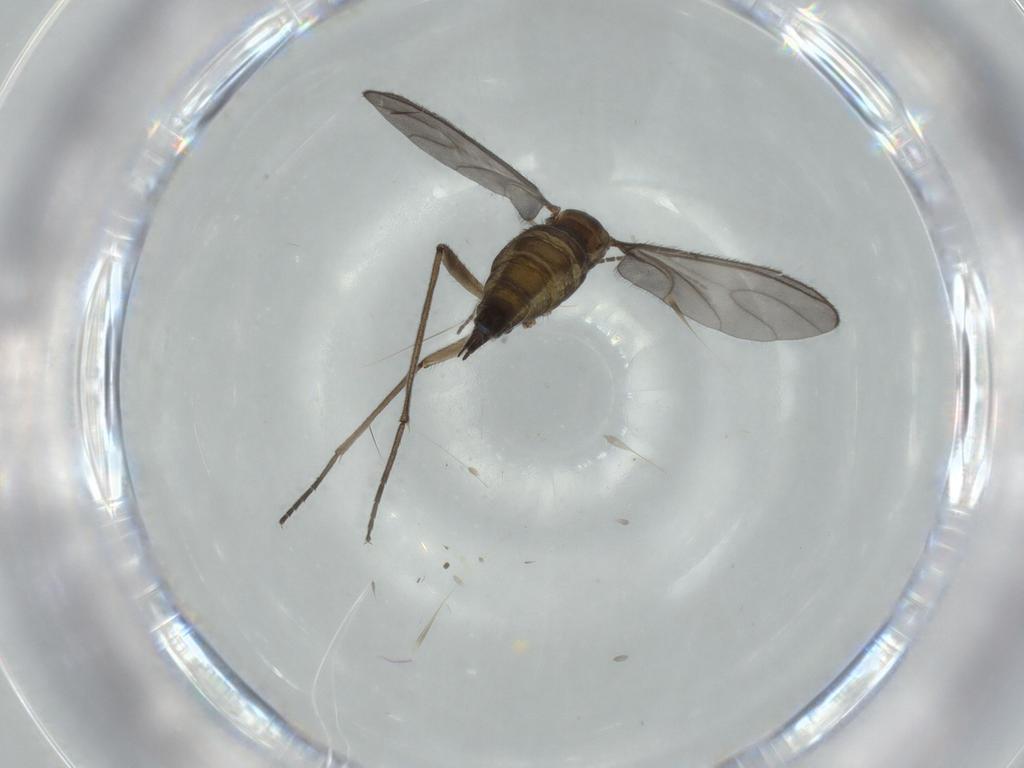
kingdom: Animalia
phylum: Arthropoda
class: Insecta
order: Diptera
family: Sciaridae
